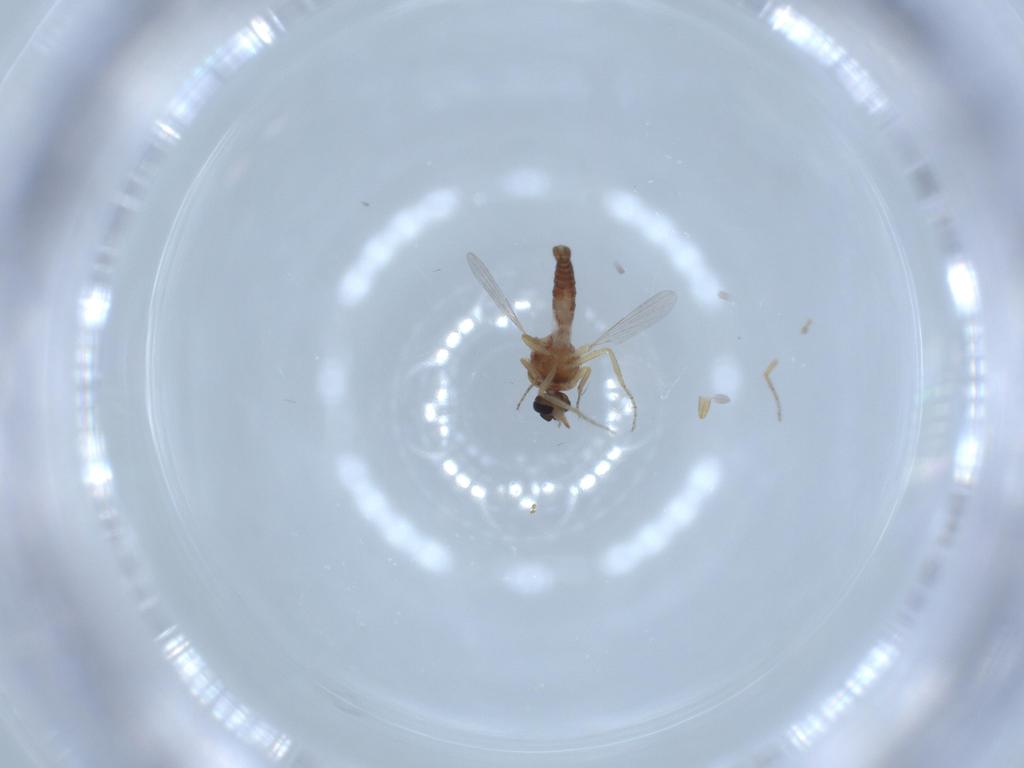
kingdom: Animalia
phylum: Arthropoda
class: Insecta
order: Diptera
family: Ceratopogonidae
